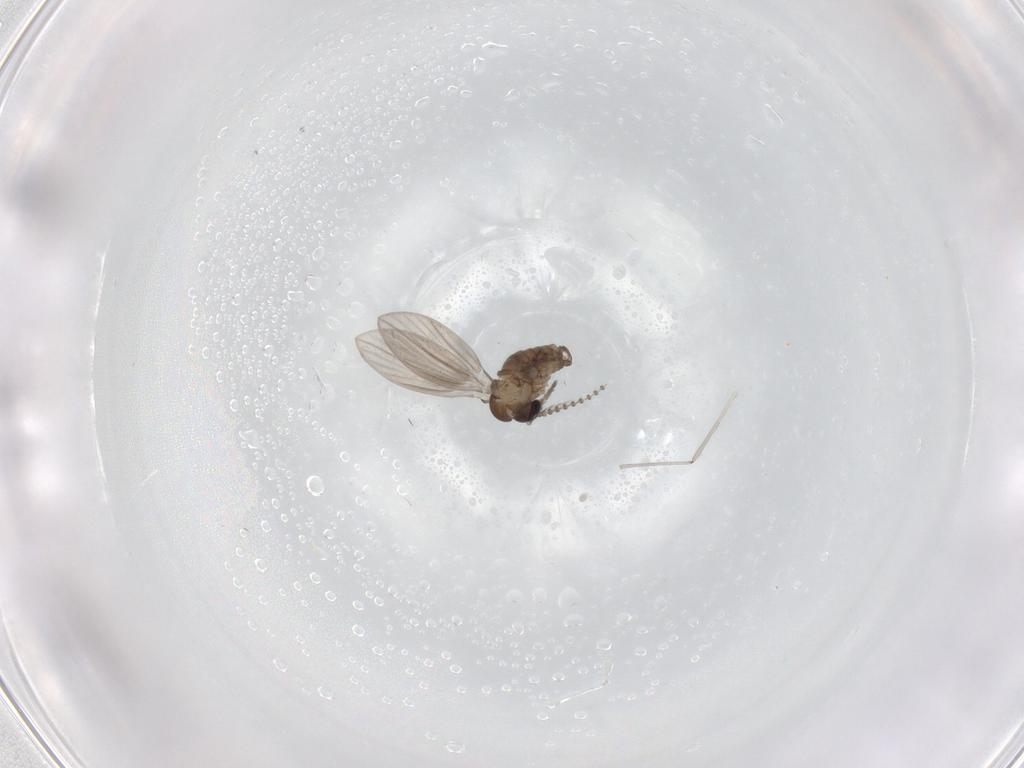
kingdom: Animalia
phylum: Arthropoda
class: Insecta
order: Diptera
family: Psychodidae
